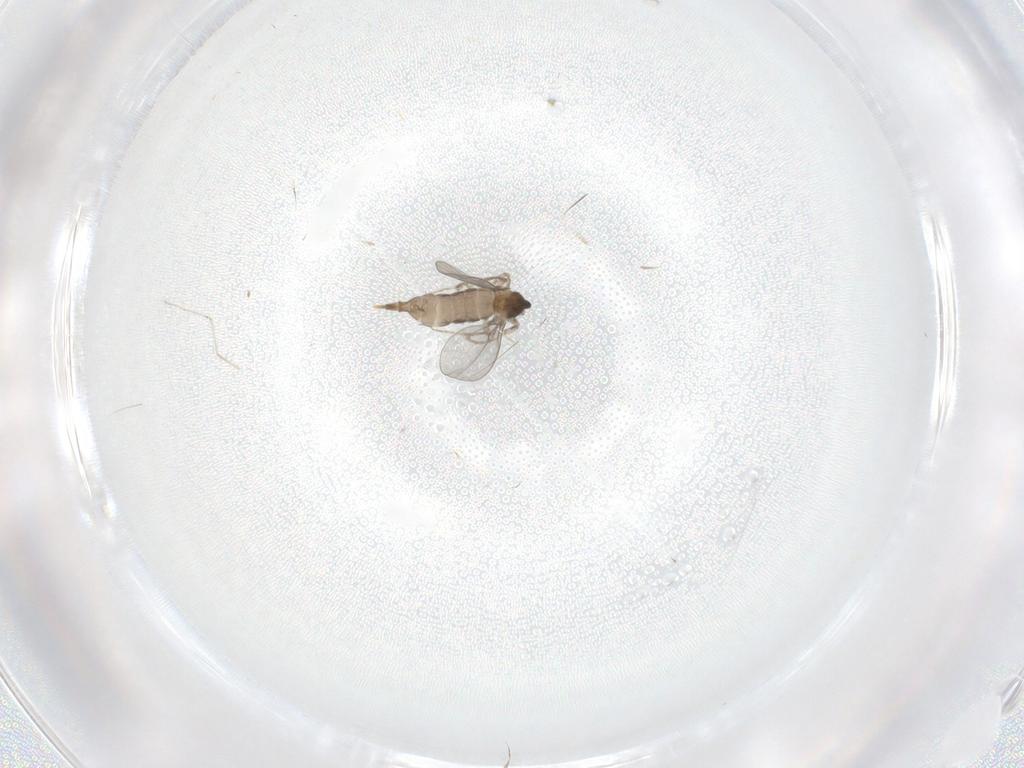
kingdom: Animalia
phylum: Arthropoda
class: Insecta
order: Diptera
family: Cecidomyiidae
